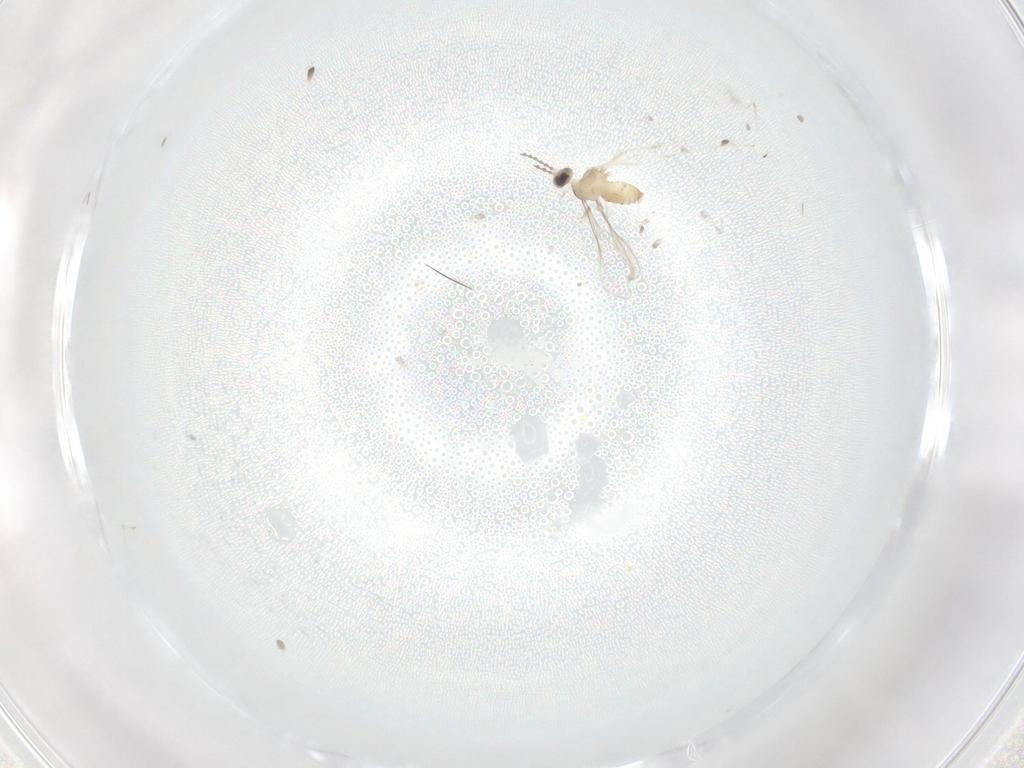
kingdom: Animalia
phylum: Arthropoda
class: Insecta
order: Diptera
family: Cecidomyiidae
